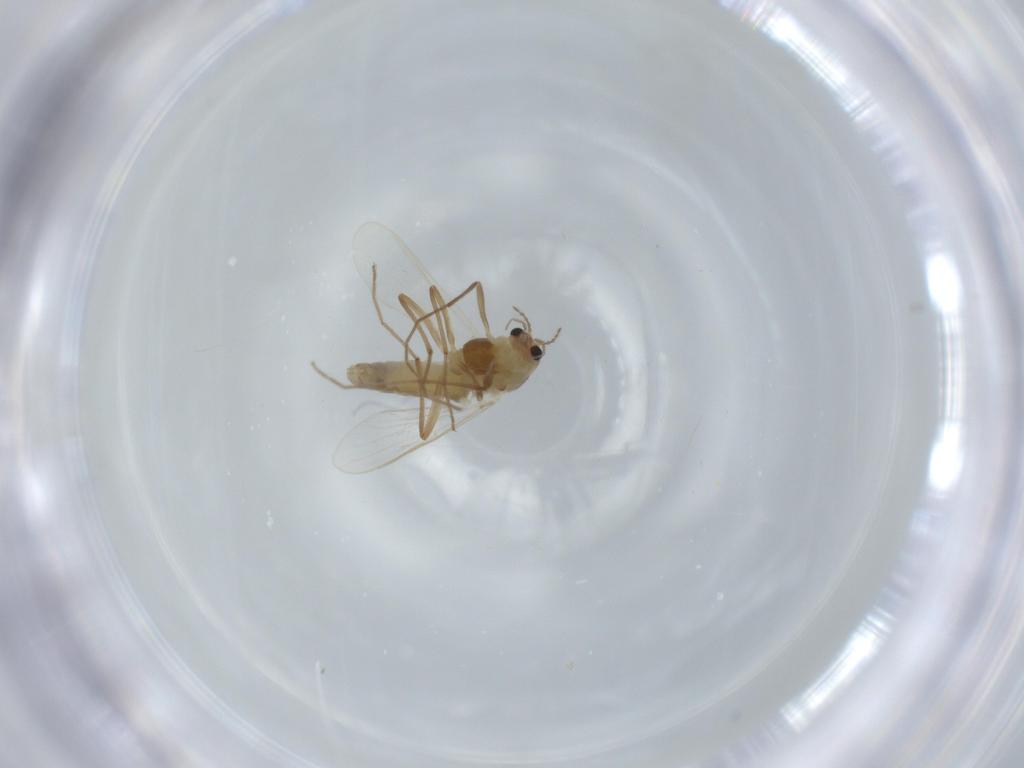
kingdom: Animalia
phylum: Arthropoda
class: Insecta
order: Diptera
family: Chironomidae
